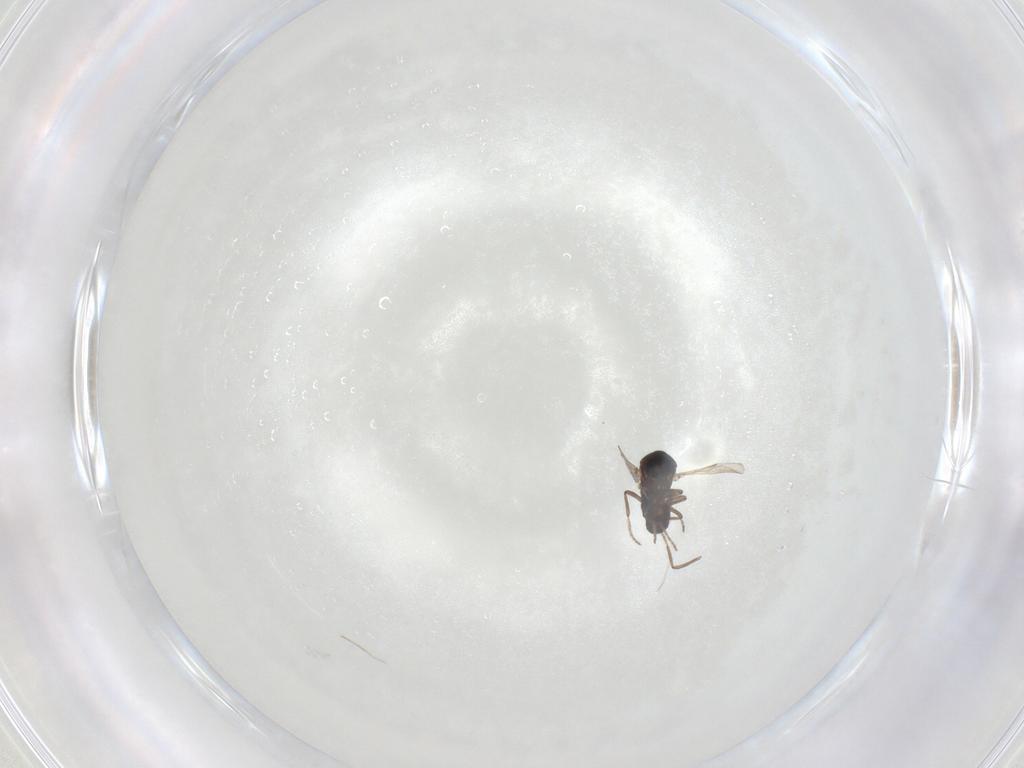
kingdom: Animalia
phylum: Arthropoda
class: Insecta
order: Diptera
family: Ceratopogonidae
